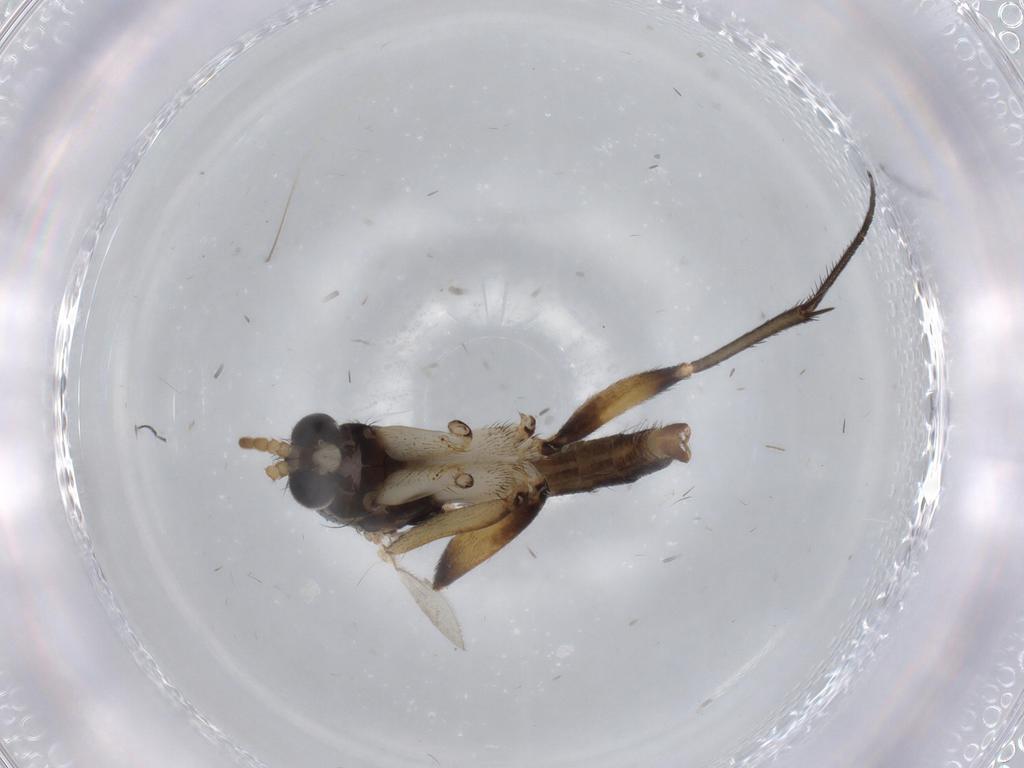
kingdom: Animalia
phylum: Arthropoda
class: Insecta
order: Diptera
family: Chironomidae
